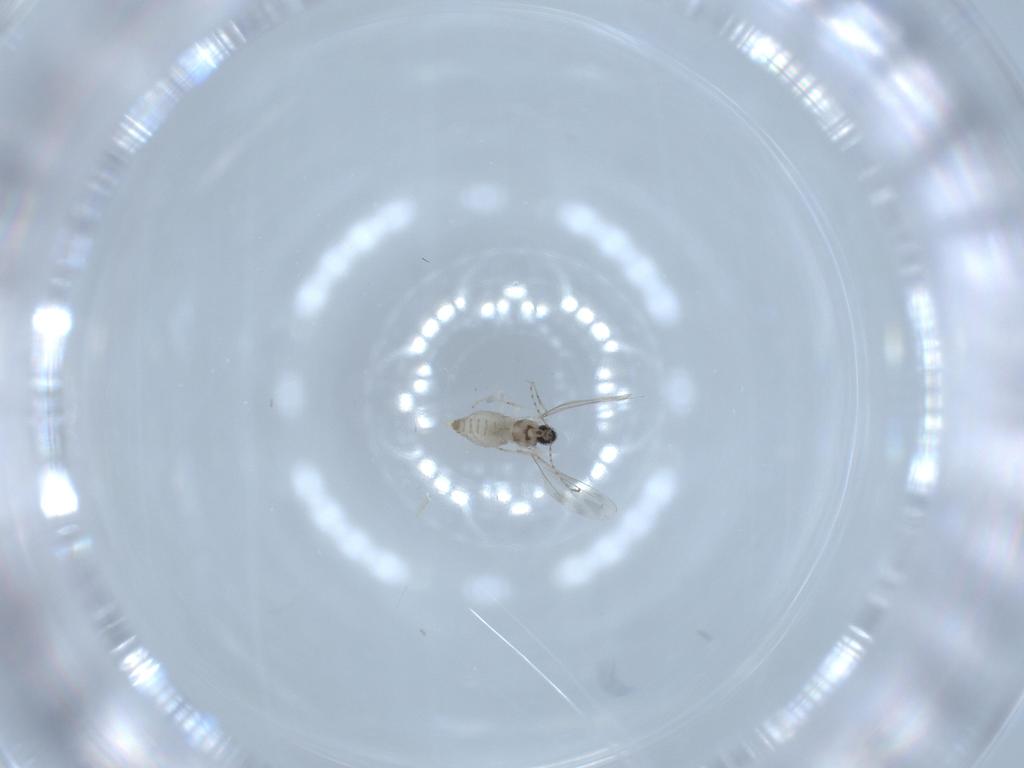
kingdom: Animalia
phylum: Arthropoda
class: Insecta
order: Diptera
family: Cecidomyiidae
